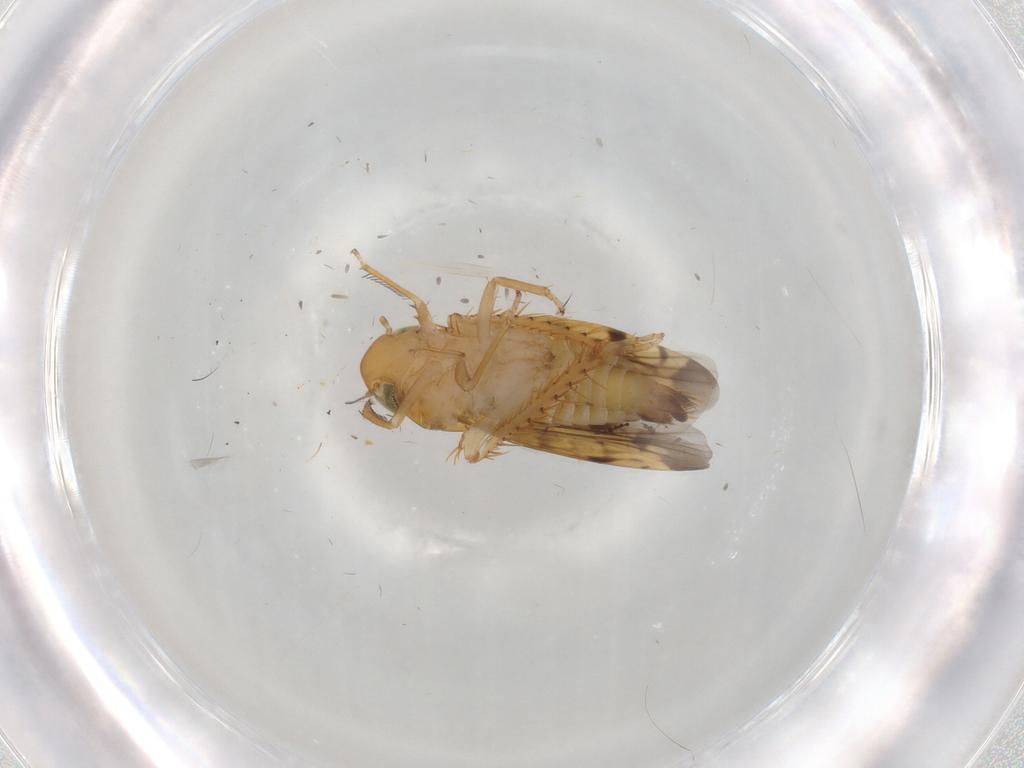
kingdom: Animalia
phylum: Arthropoda
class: Insecta
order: Hemiptera
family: Cicadellidae
